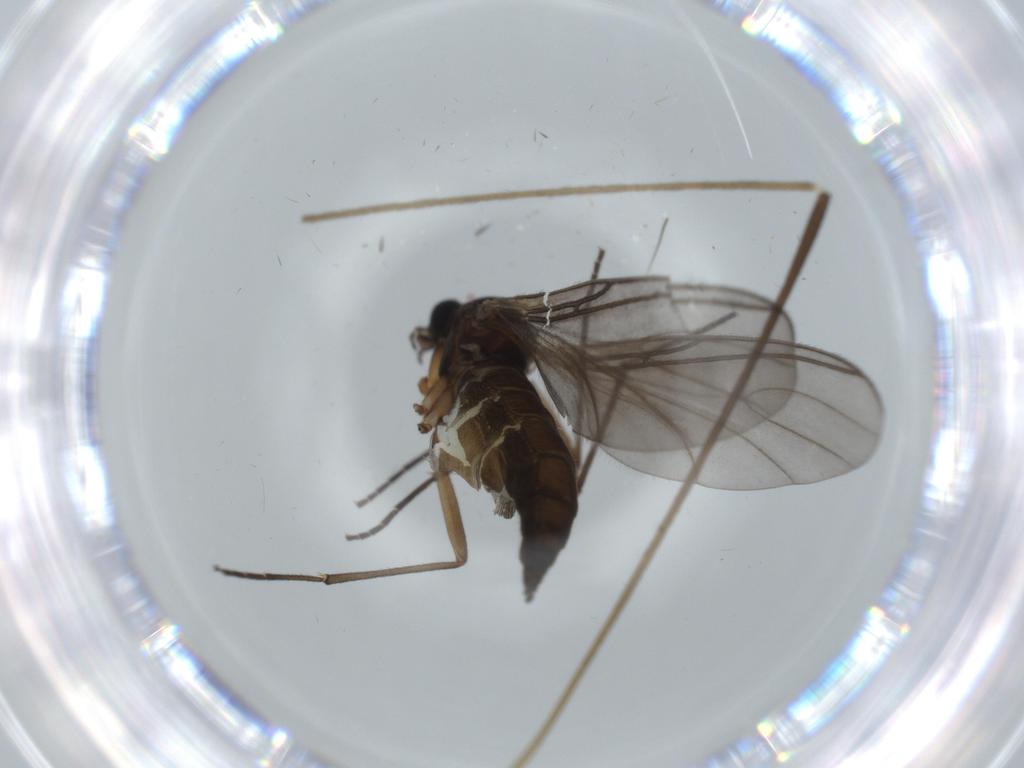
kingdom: Animalia
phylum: Arthropoda
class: Insecta
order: Diptera
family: Sciaridae
